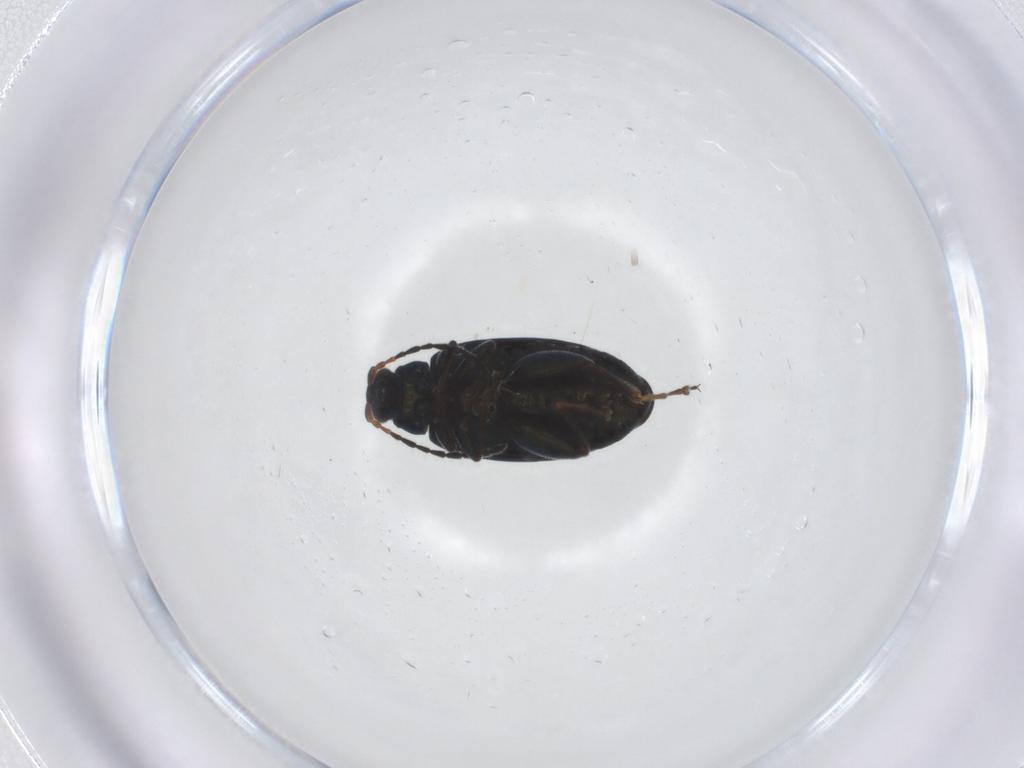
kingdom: Animalia
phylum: Arthropoda
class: Insecta
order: Coleoptera
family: Chrysomelidae
